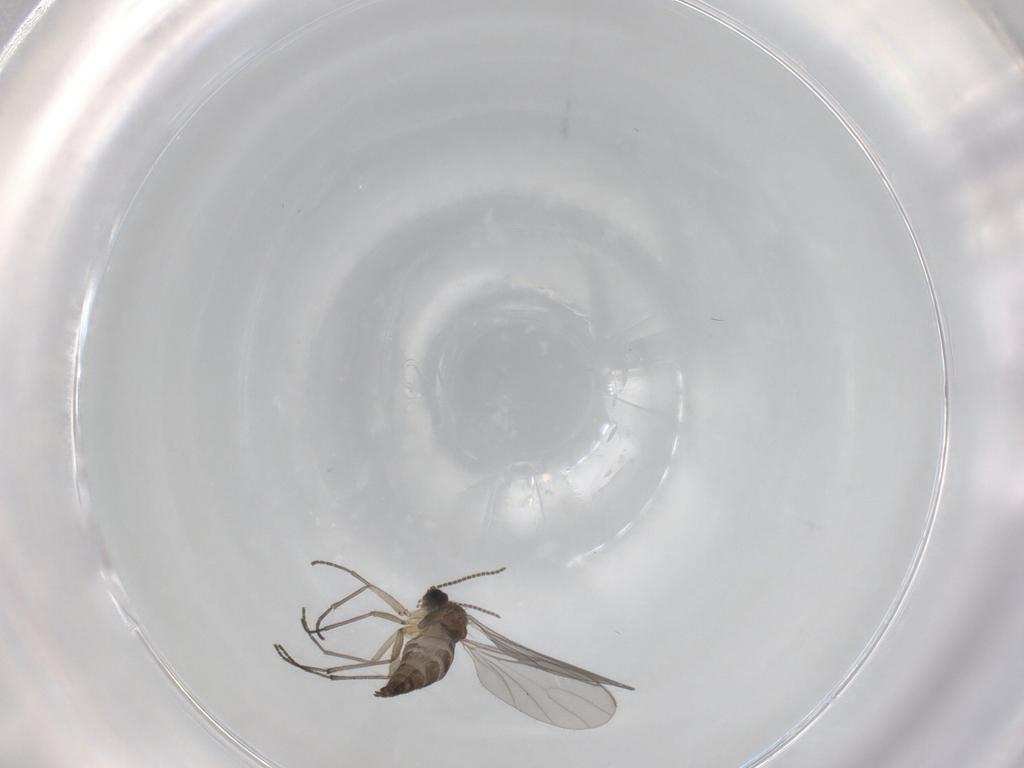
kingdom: Animalia
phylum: Arthropoda
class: Insecta
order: Diptera
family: Sciaridae
